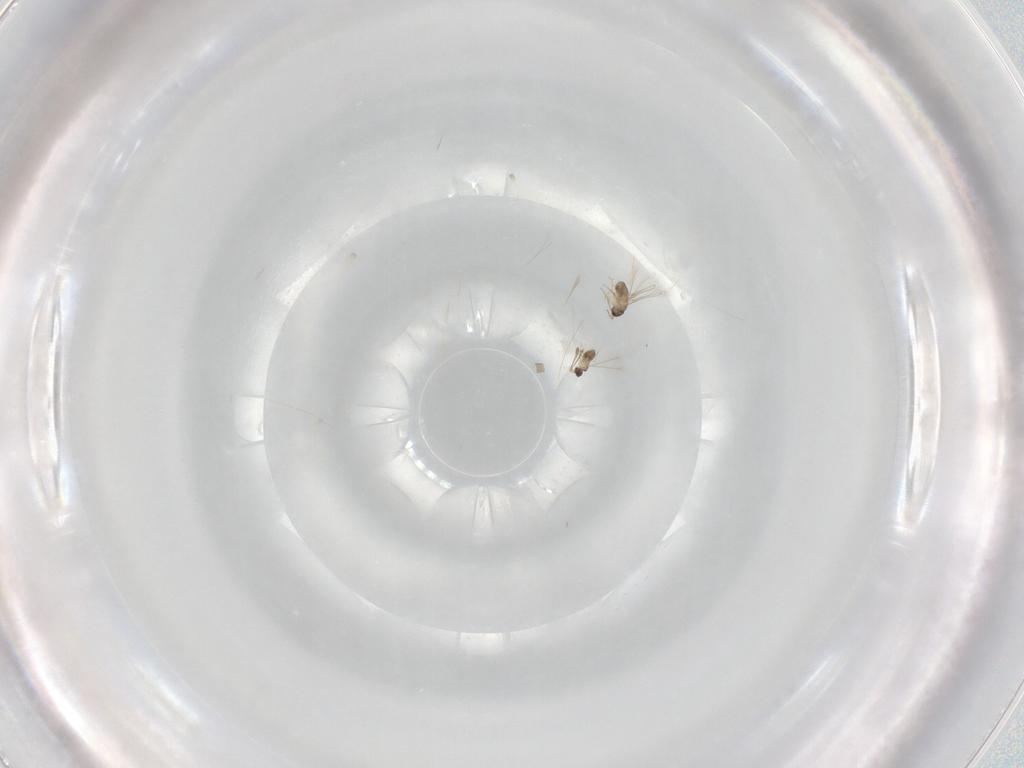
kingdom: Animalia
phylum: Arthropoda
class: Insecta
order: Hymenoptera
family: Mymaridae
